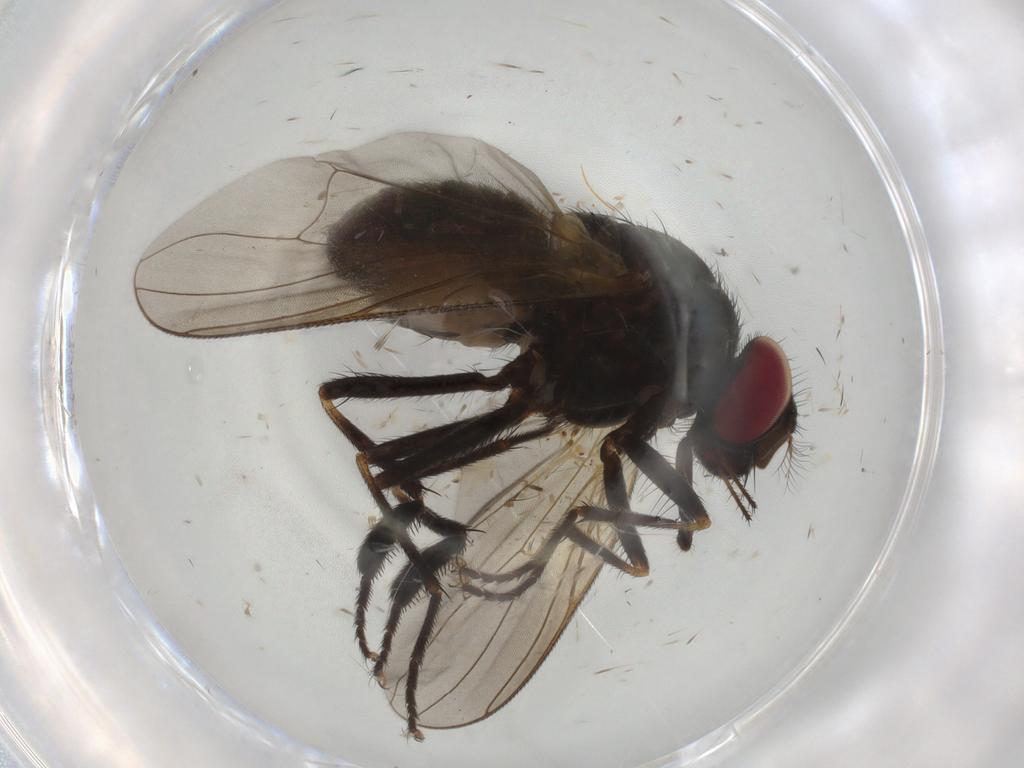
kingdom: Animalia
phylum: Arthropoda
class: Insecta
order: Diptera
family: Muscidae
